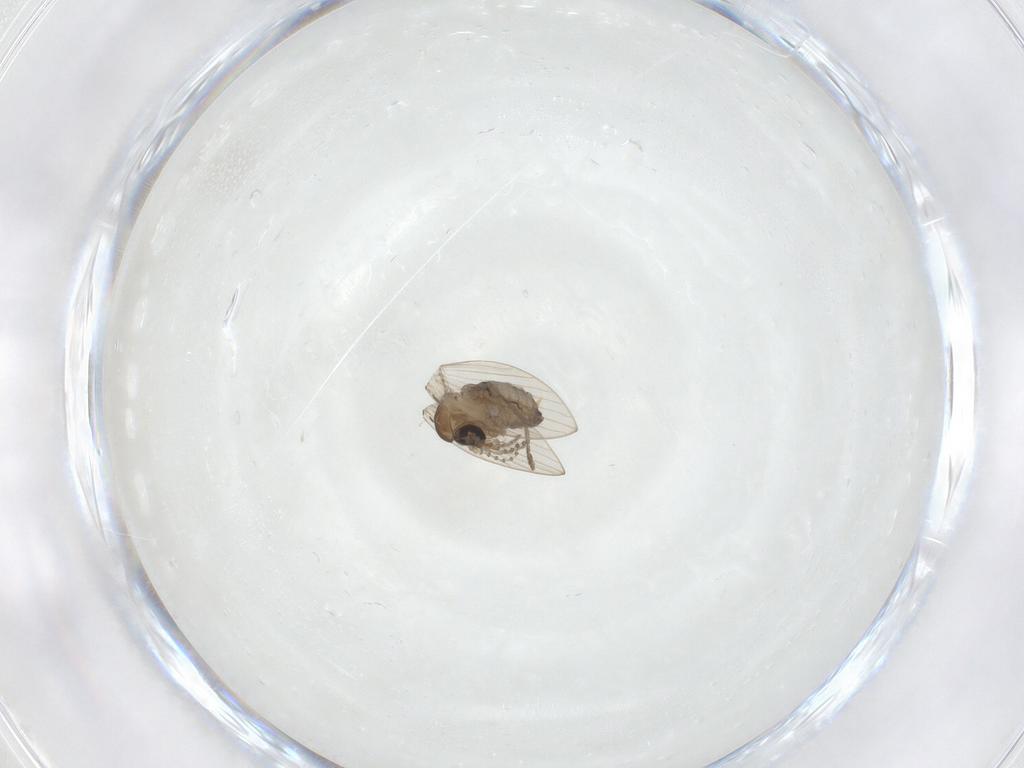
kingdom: Animalia
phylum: Arthropoda
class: Insecta
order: Diptera
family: Psychodidae
